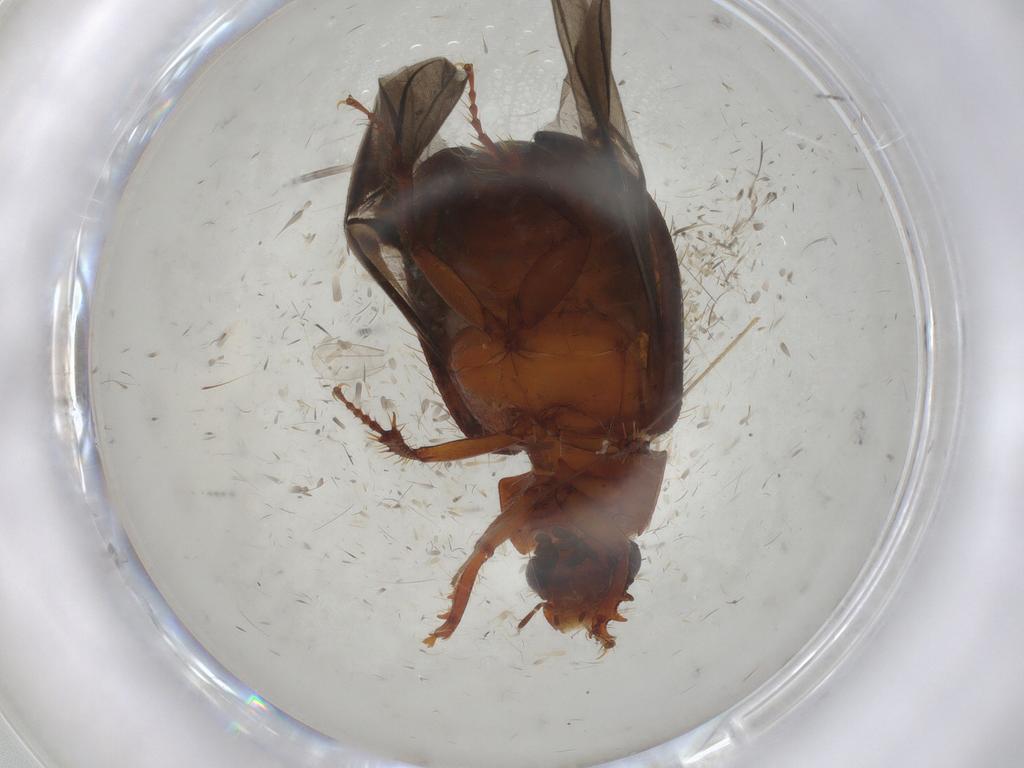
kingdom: Animalia
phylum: Arthropoda
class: Insecta
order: Coleoptera
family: Hybosoridae
